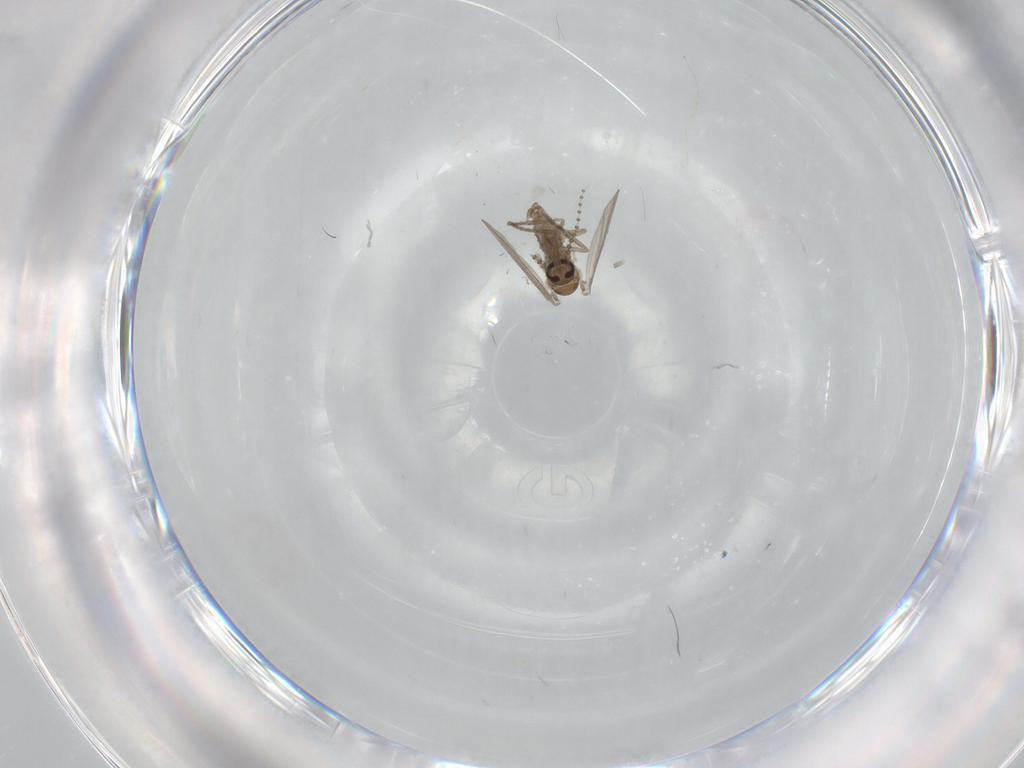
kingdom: Animalia
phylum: Arthropoda
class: Insecta
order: Diptera
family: Psychodidae
